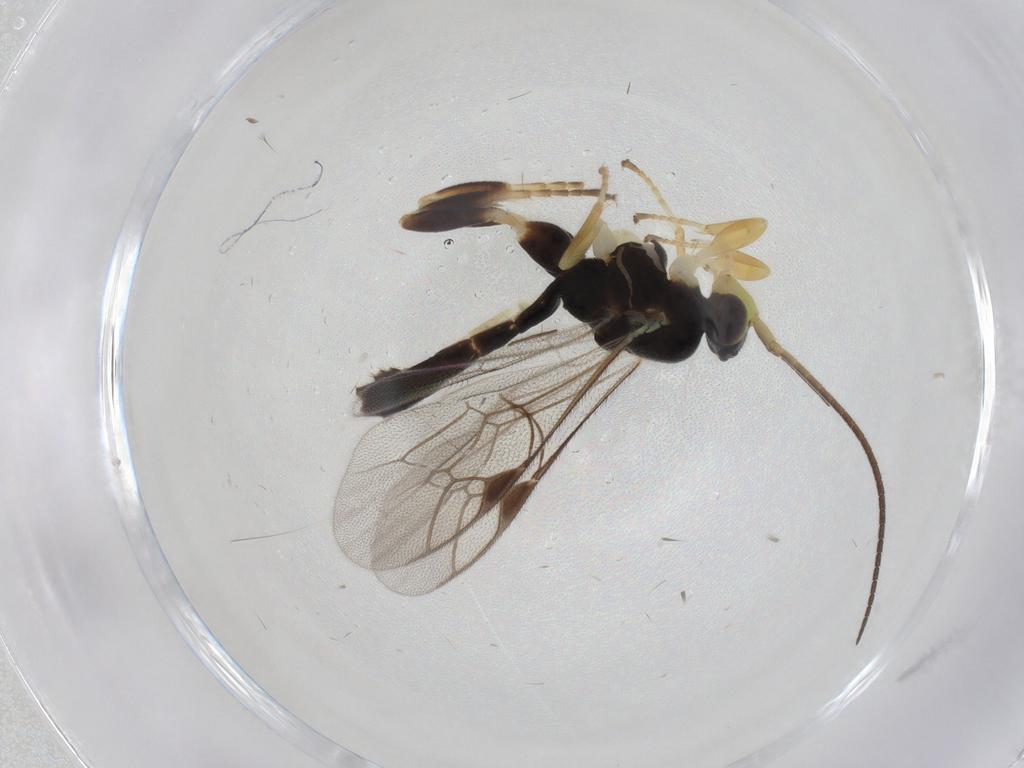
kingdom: Animalia
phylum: Arthropoda
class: Insecta
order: Hymenoptera
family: Ichneumonidae
